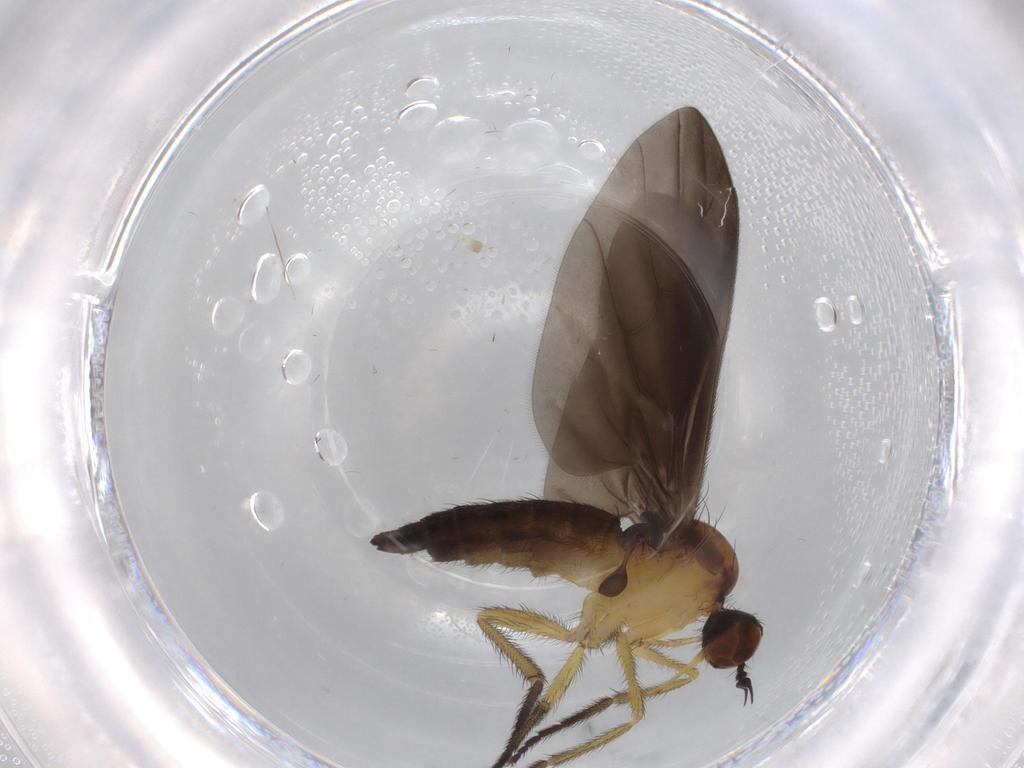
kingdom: Animalia
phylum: Arthropoda
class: Insecta
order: Diptera
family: Empididae
